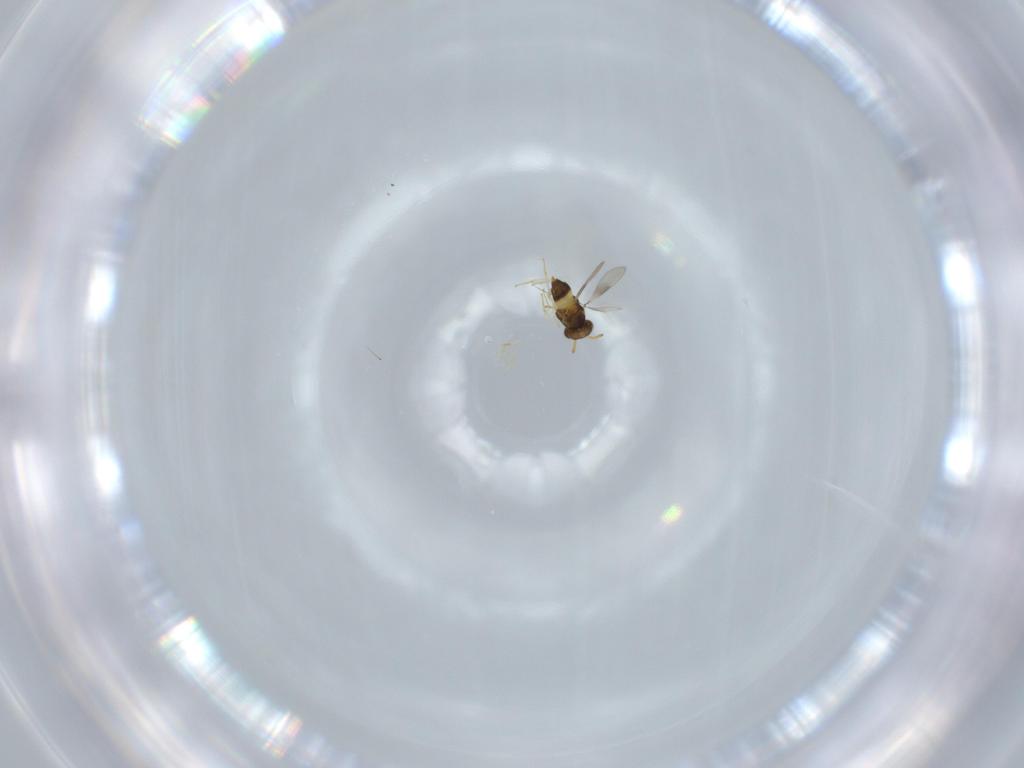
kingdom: Animalia
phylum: Arthropoda
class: Insecta
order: Hymenoptera
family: Aphelinidae
